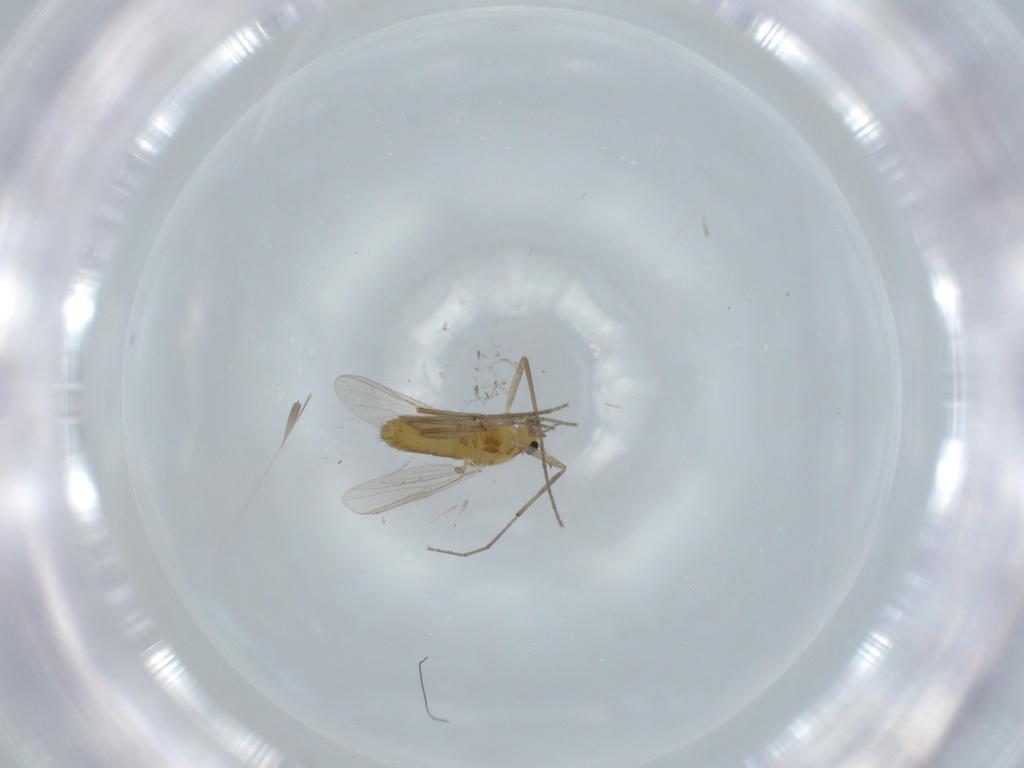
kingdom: Animalia
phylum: Arthropoda
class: Insecta
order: Diptera
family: Chironomidae
